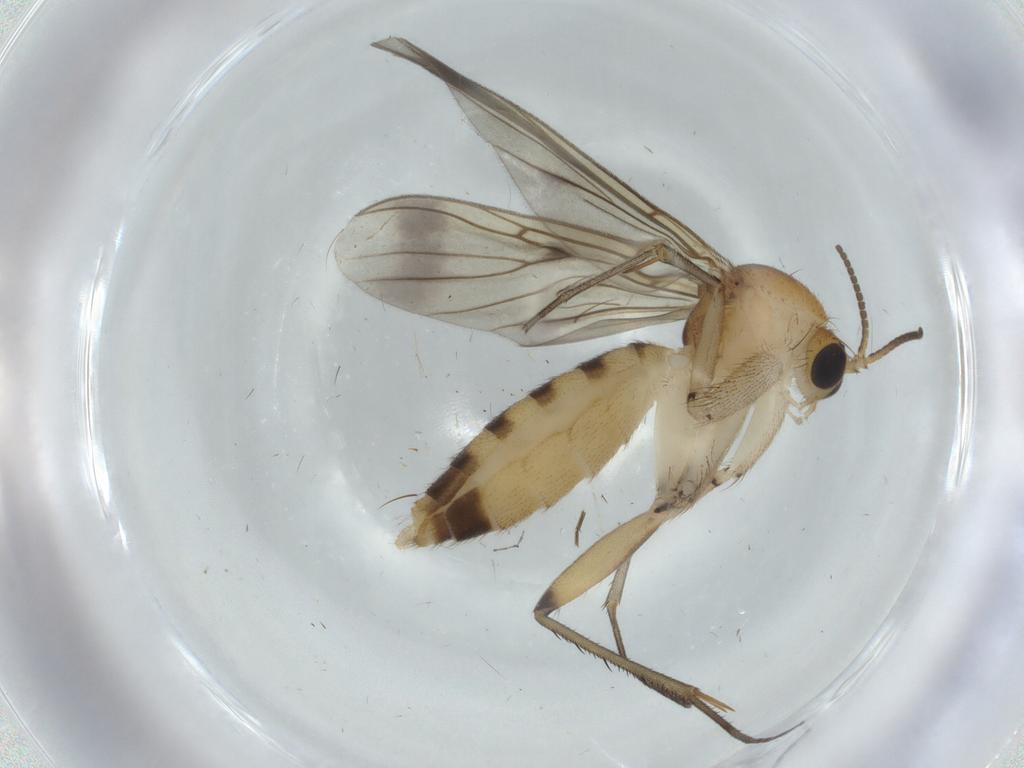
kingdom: Animalia
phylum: Arthropoda
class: Insecta
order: Diptera
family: Mycetophilidae
